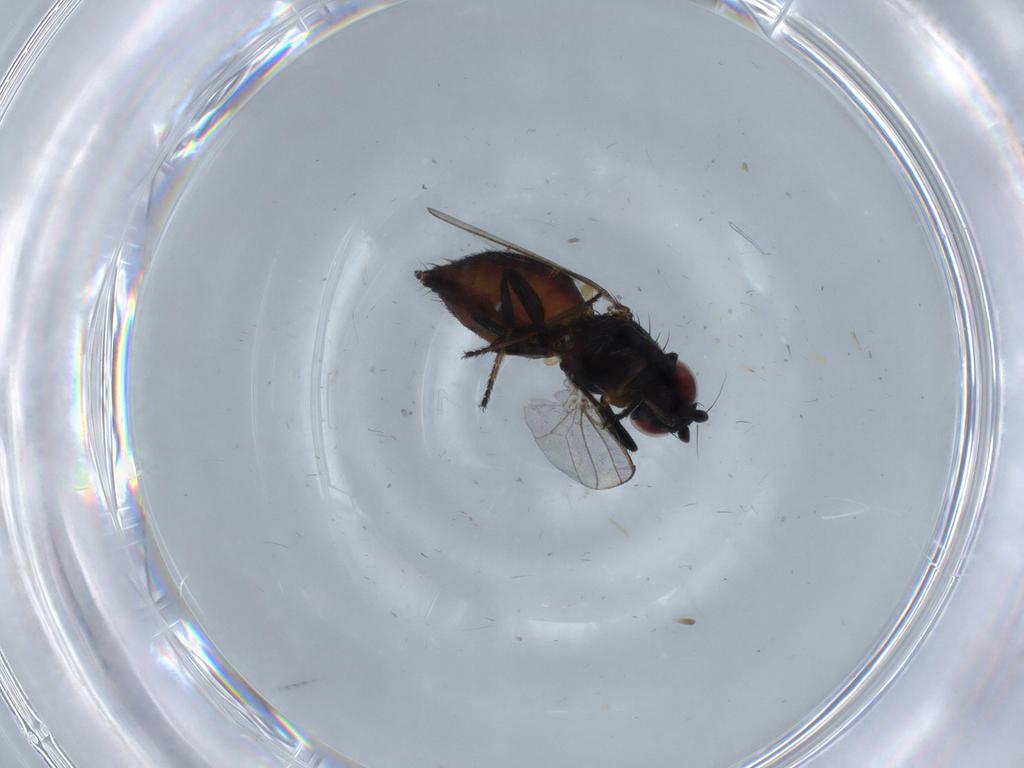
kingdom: Animalia
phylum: Arthropoda
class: Insecta
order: Diptera
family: Milichiidae
